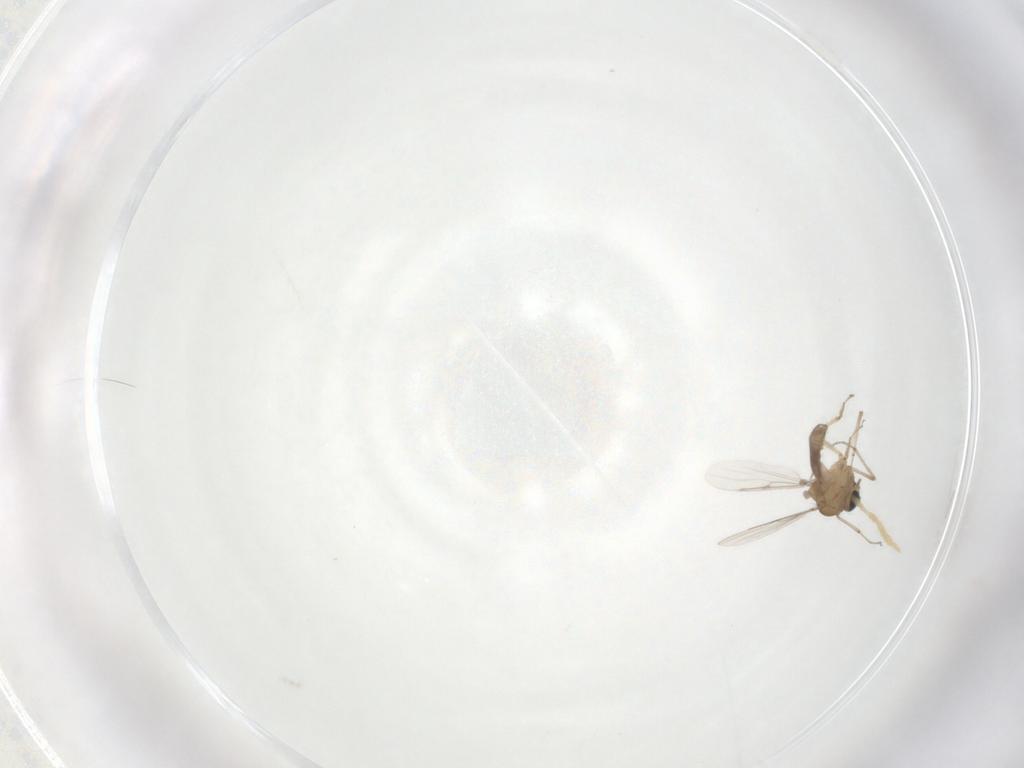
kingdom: Animalia
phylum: Arthropoda
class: Insecta
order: Diptera
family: Chironomidae
